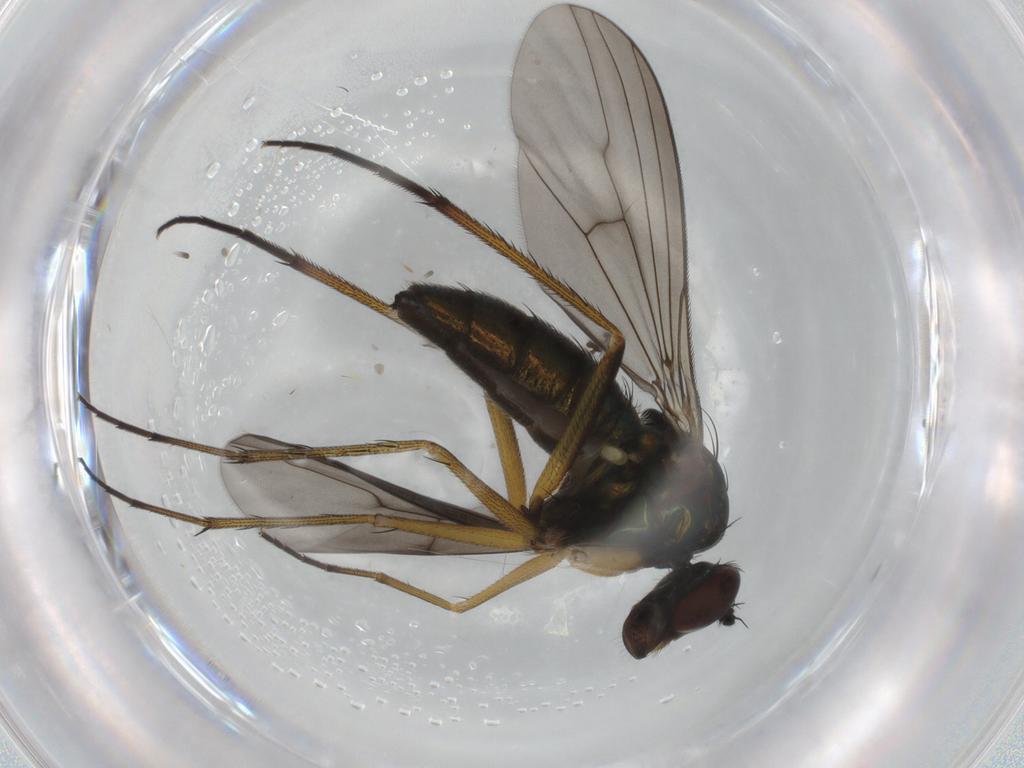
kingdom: Animalia
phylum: Arthropoda
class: Insecta
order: Diptera
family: Dolichopodidae
